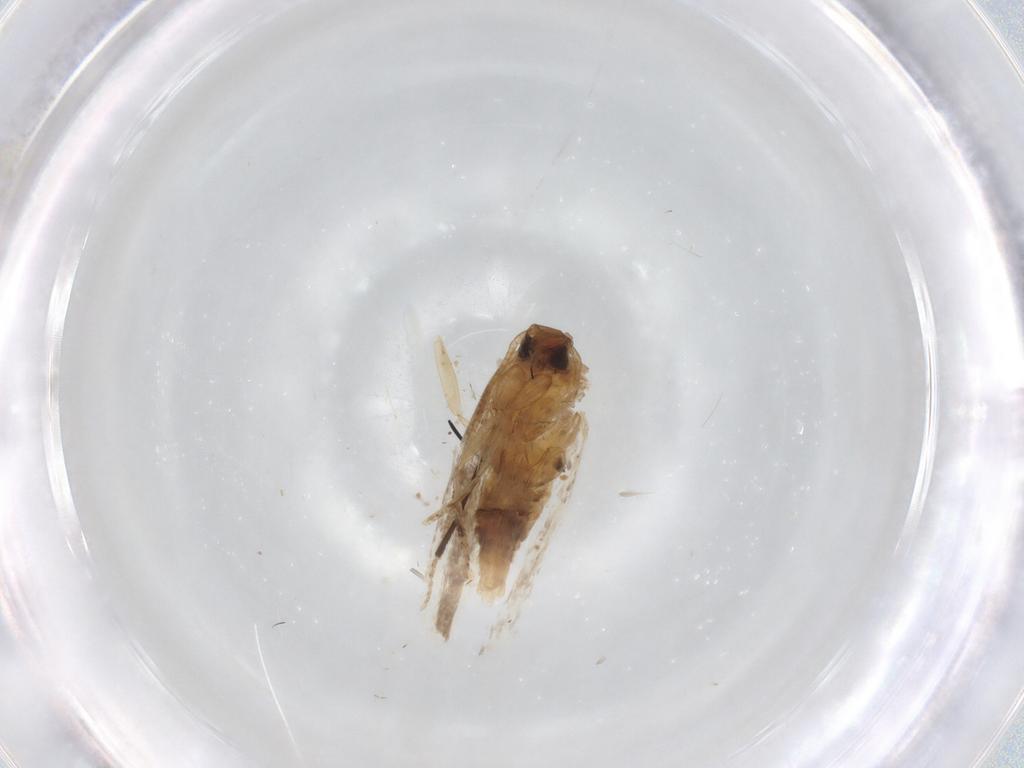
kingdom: Animalia
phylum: Arthropoda
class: Insecta
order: Lepidoptera
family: Gelechiidae
